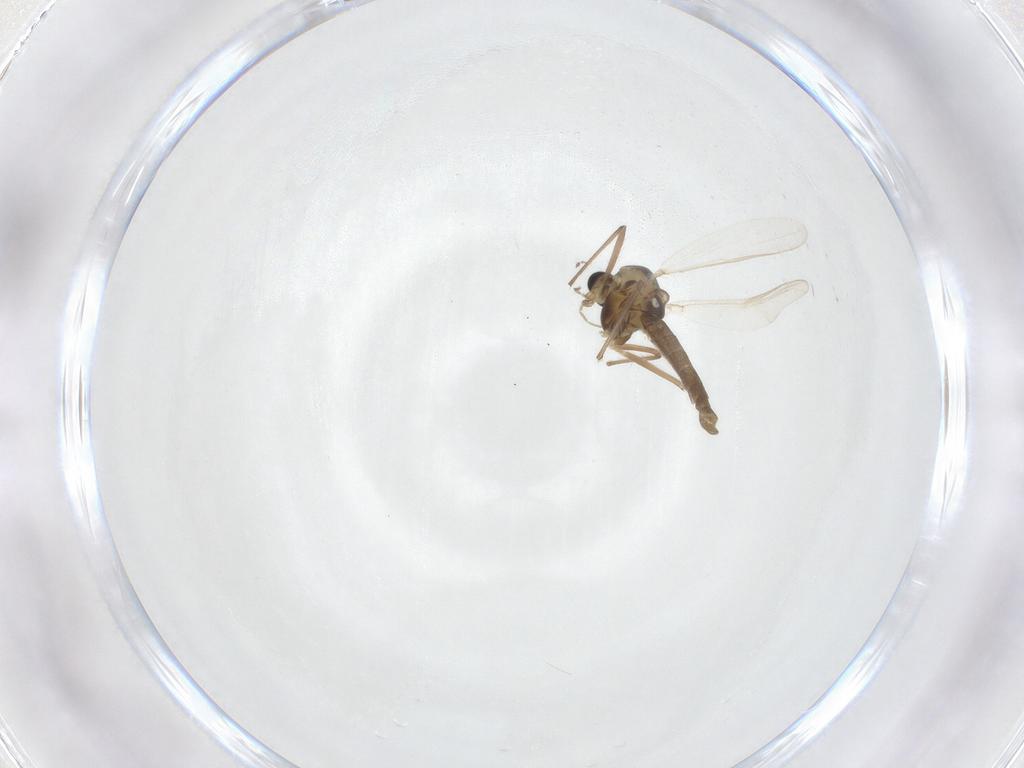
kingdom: Animalia
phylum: Arthropoda
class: Insecta
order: Diptera
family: Chironomidae
